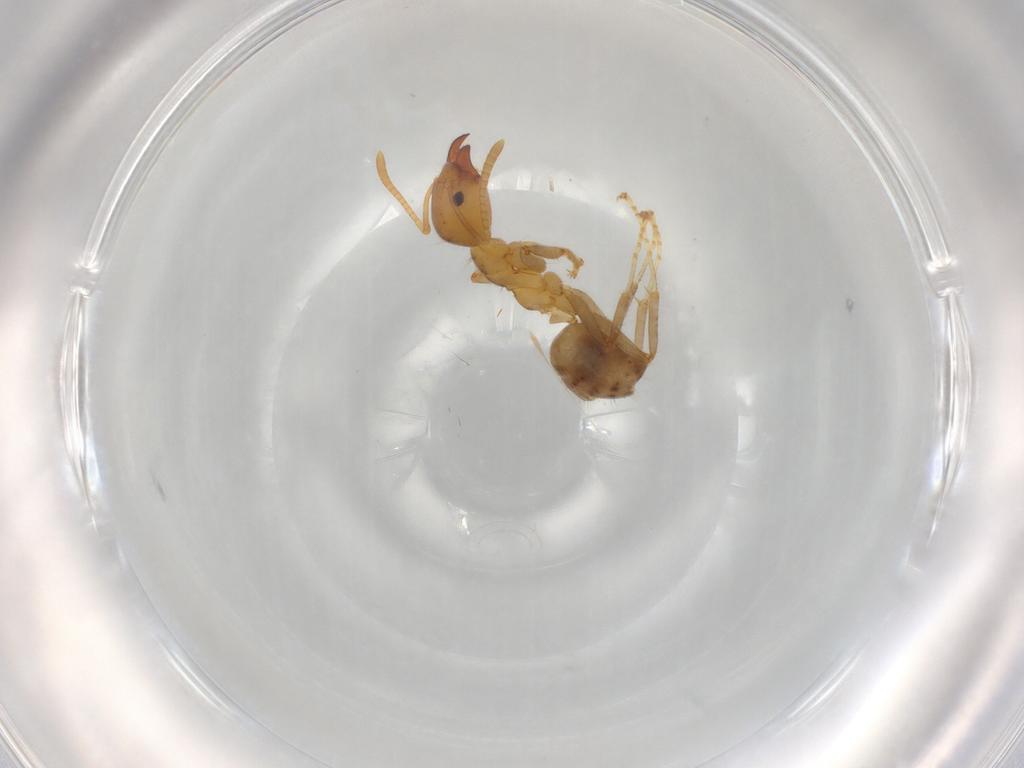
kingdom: Animalia
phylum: Arthropoda
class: Insecta
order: Hymenoptera
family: Formicidae
